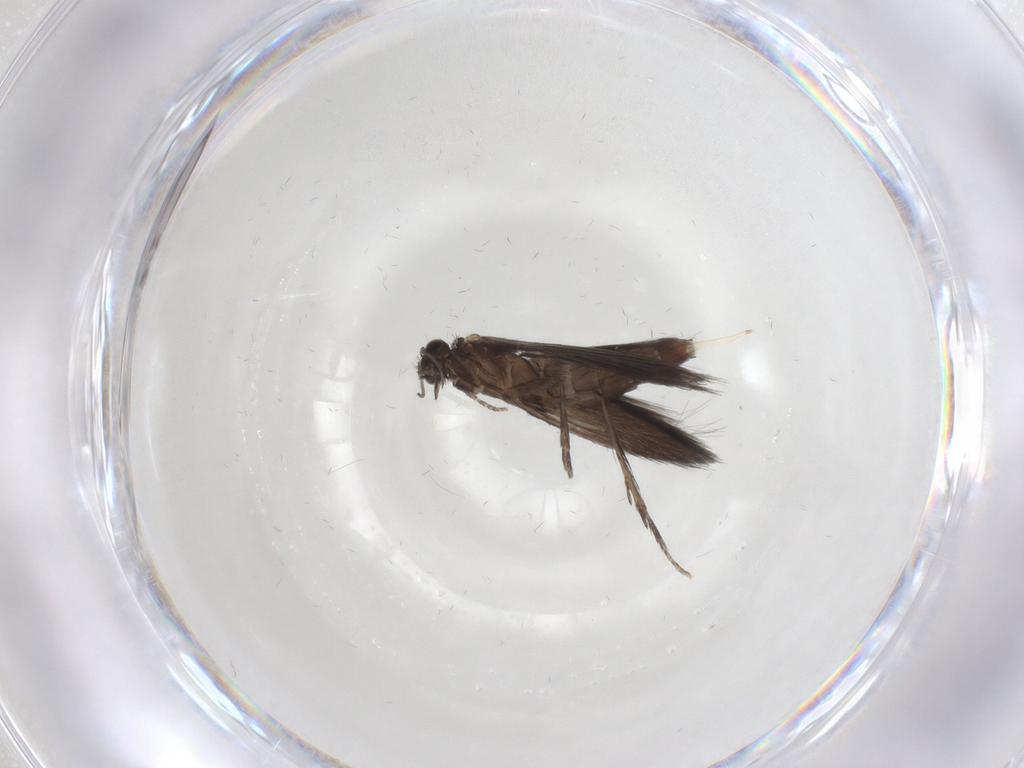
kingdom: Animalia
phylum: Arthropoda
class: Insecta
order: Trichoptera
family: Hydroptilidae
